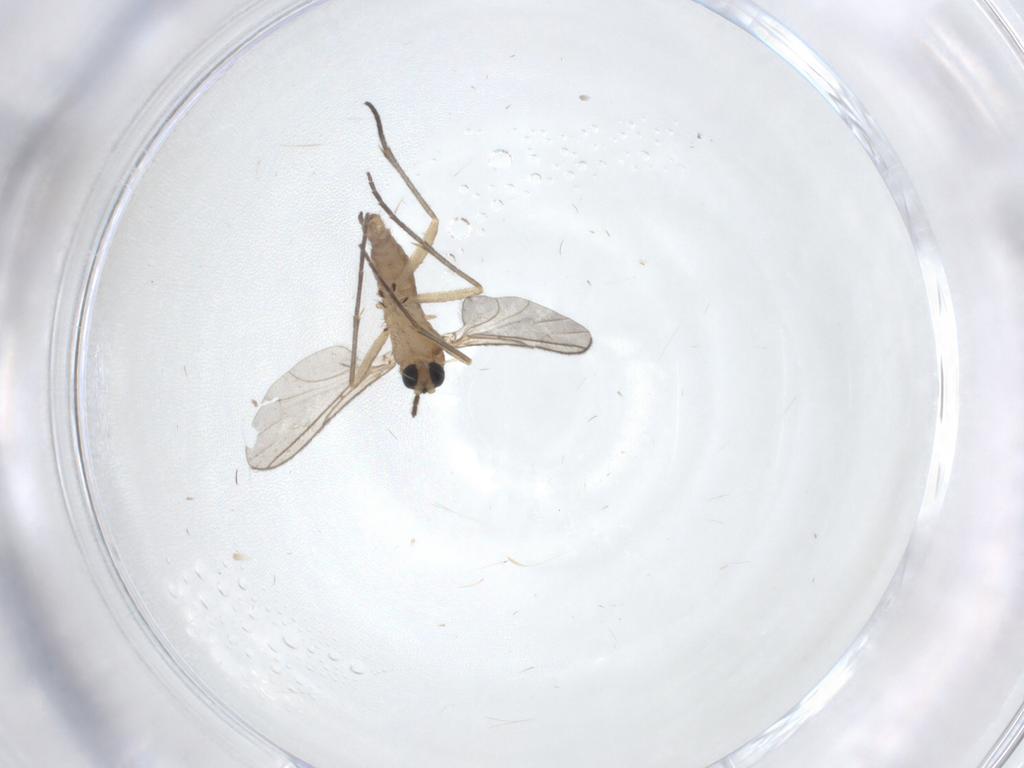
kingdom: Animalia
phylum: Arthropoda
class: Insecta
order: Diptera
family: Sciaridae
